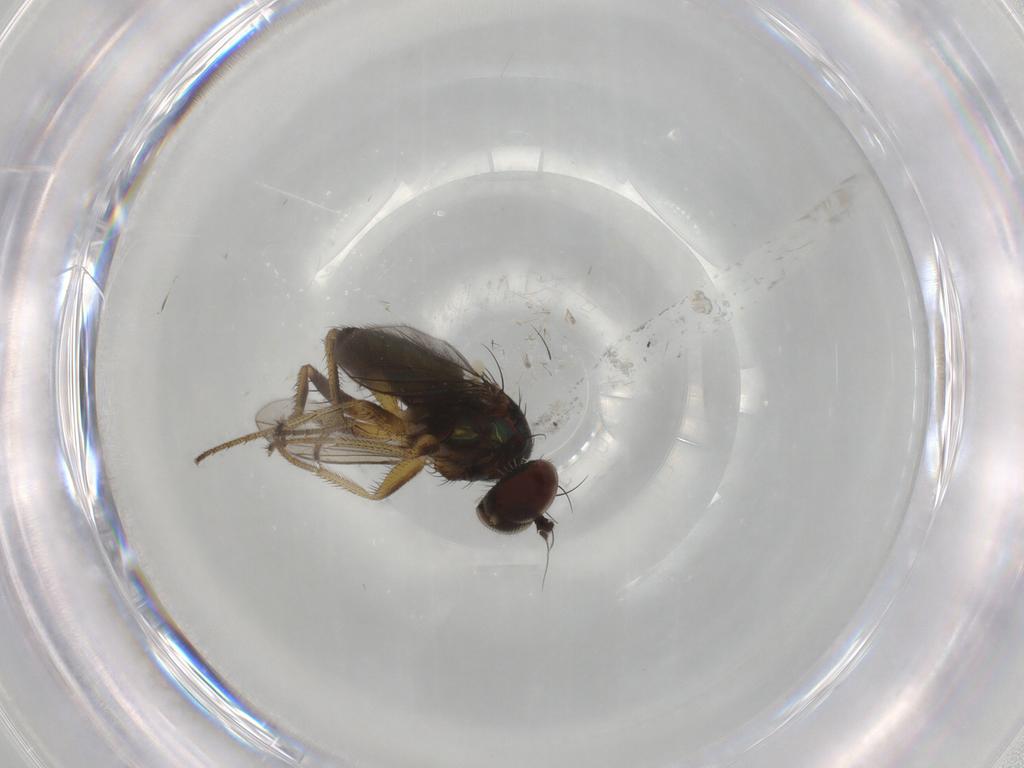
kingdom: Animalia
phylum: Arthropoda
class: Insecta
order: Diptera
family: Dolichopodidae
